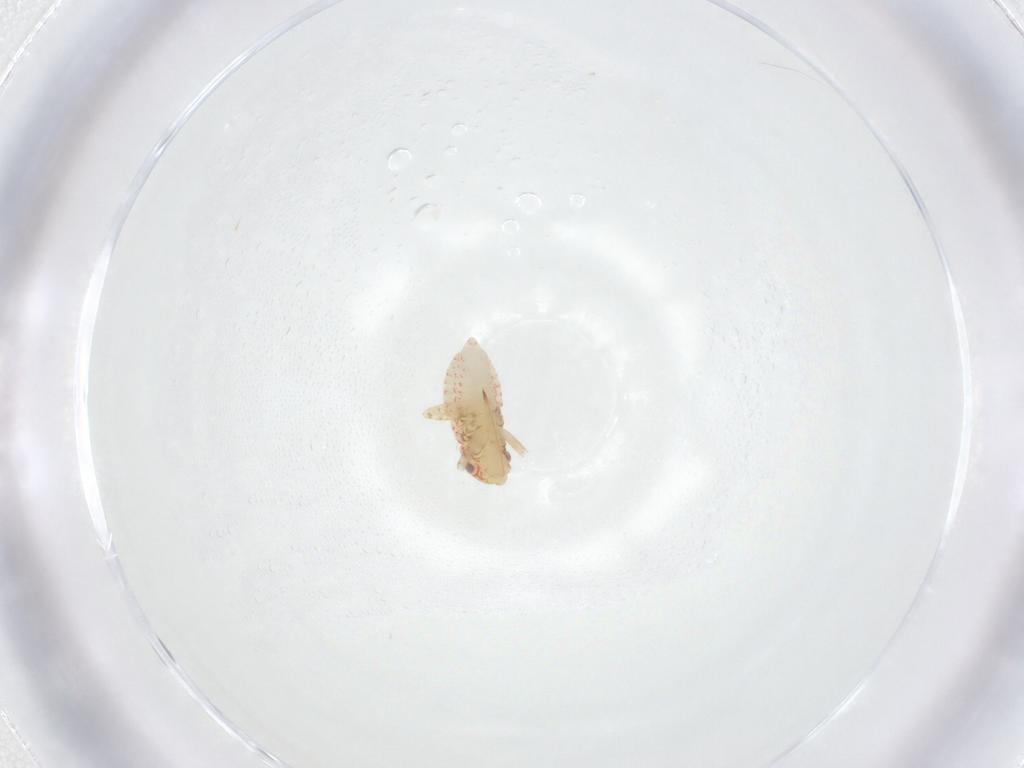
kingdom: Animalia
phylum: Arthropoda
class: Insecta
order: Hemiptera
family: Miridae
